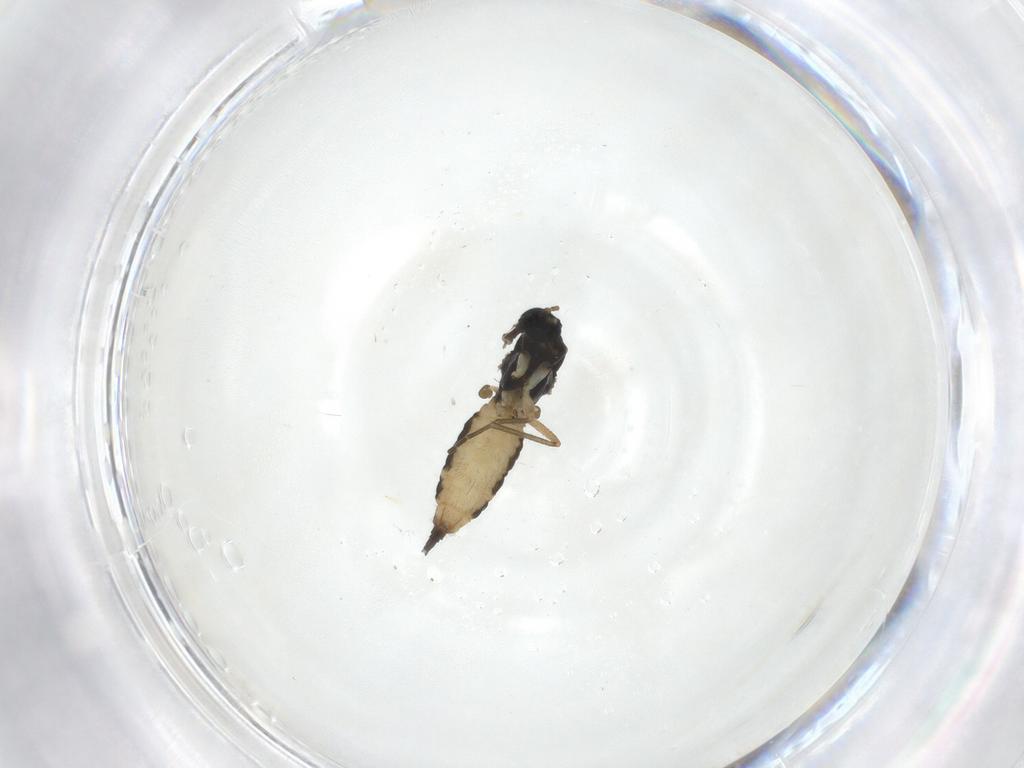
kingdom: Animalia
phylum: Arthropoda
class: Insecta
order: Diptera
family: Sciaridae
